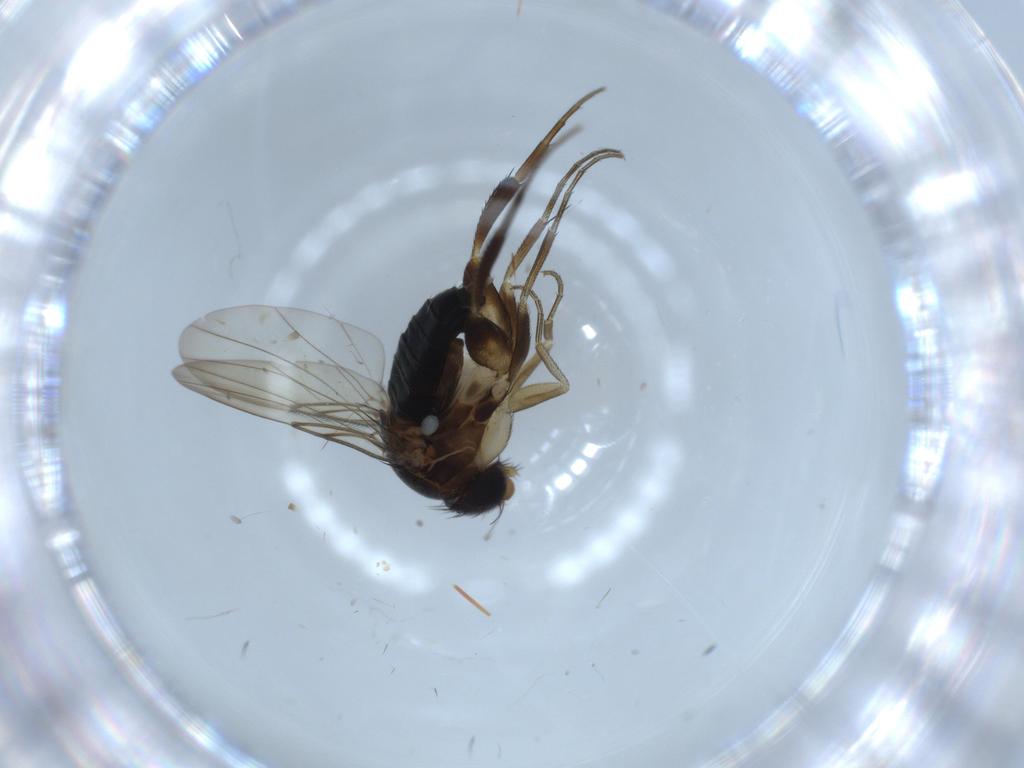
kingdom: Animalia
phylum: Arthropoda
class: Insecta
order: Diptera
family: Phoridae
